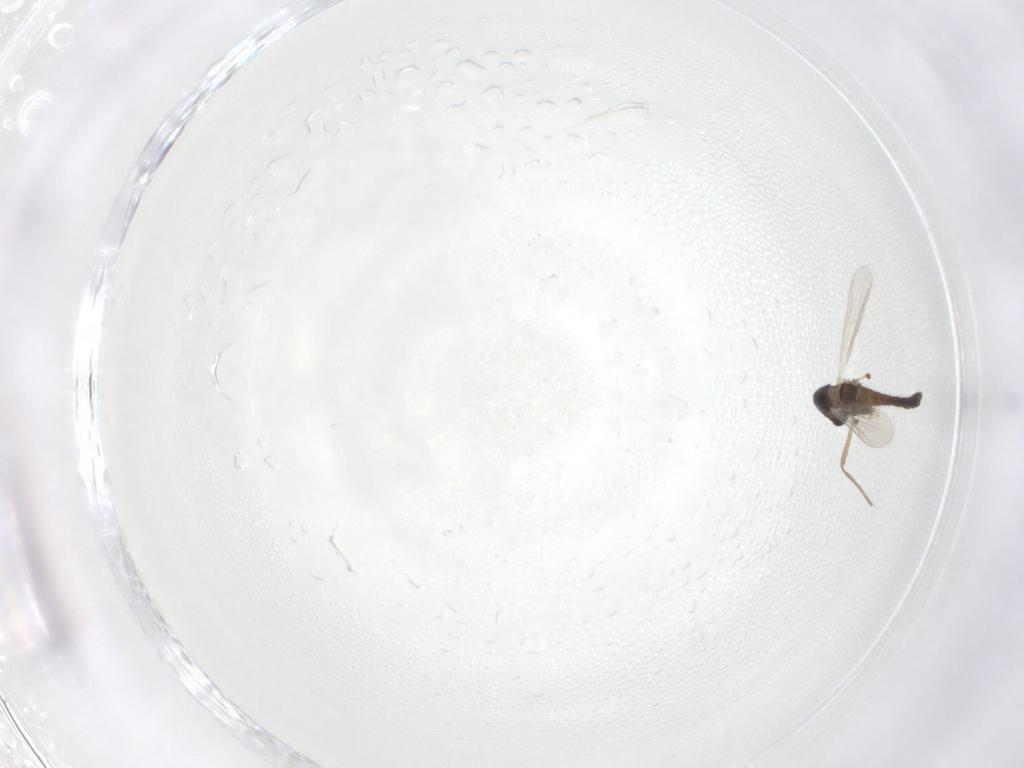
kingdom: Animalia
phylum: Arthropoda
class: Insecta
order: Diptera
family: Chironomidae
